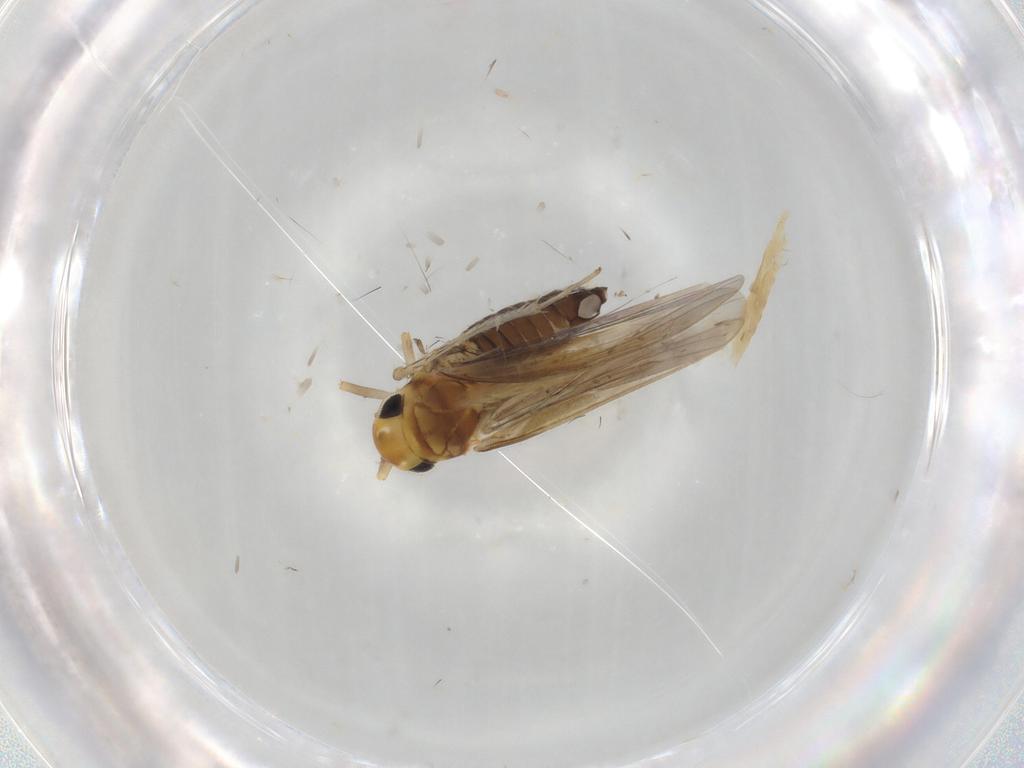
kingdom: Animalia
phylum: Arthropoda
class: Insecta
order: Hemiptera
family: Cicadellidae
